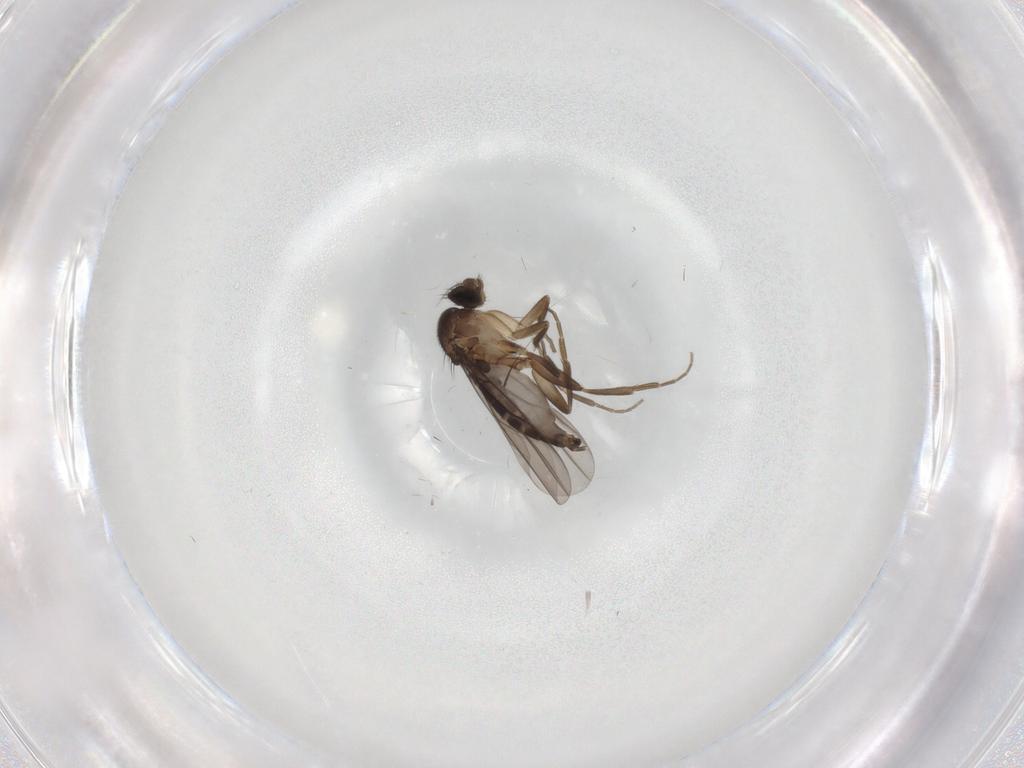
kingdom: Animalia
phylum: Arthropoda
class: Insecta
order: Diptera
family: Phoridae
